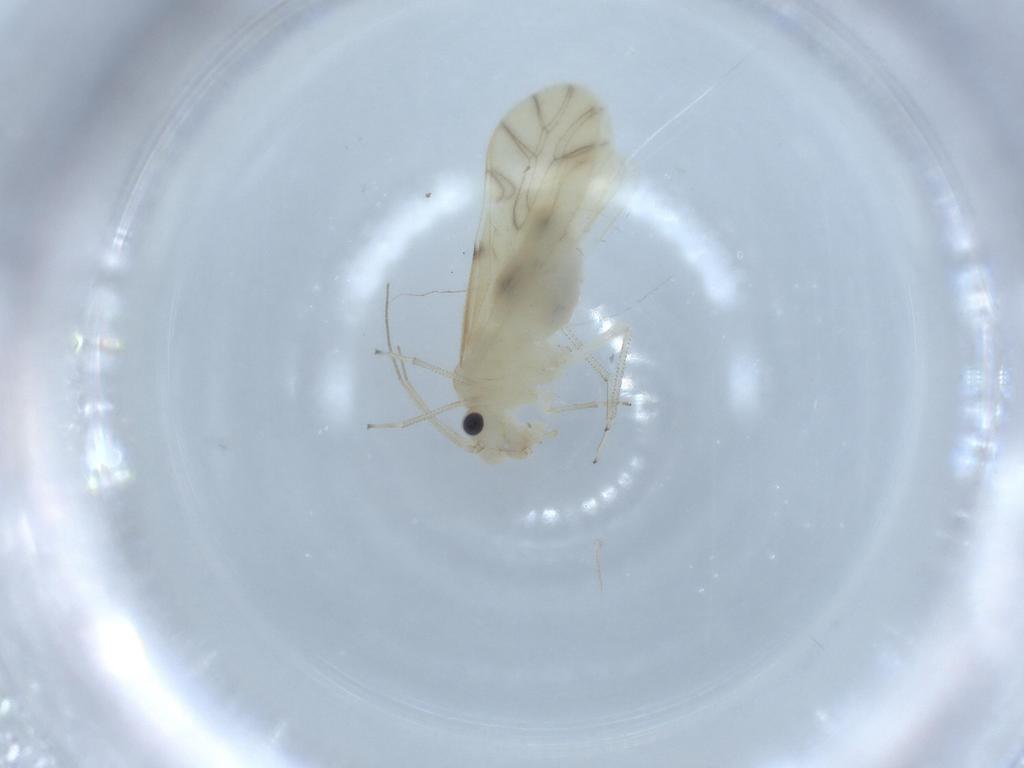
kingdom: Animalia
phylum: Arthropoda
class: Insecta
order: Psocodea
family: Caeciliusidae
